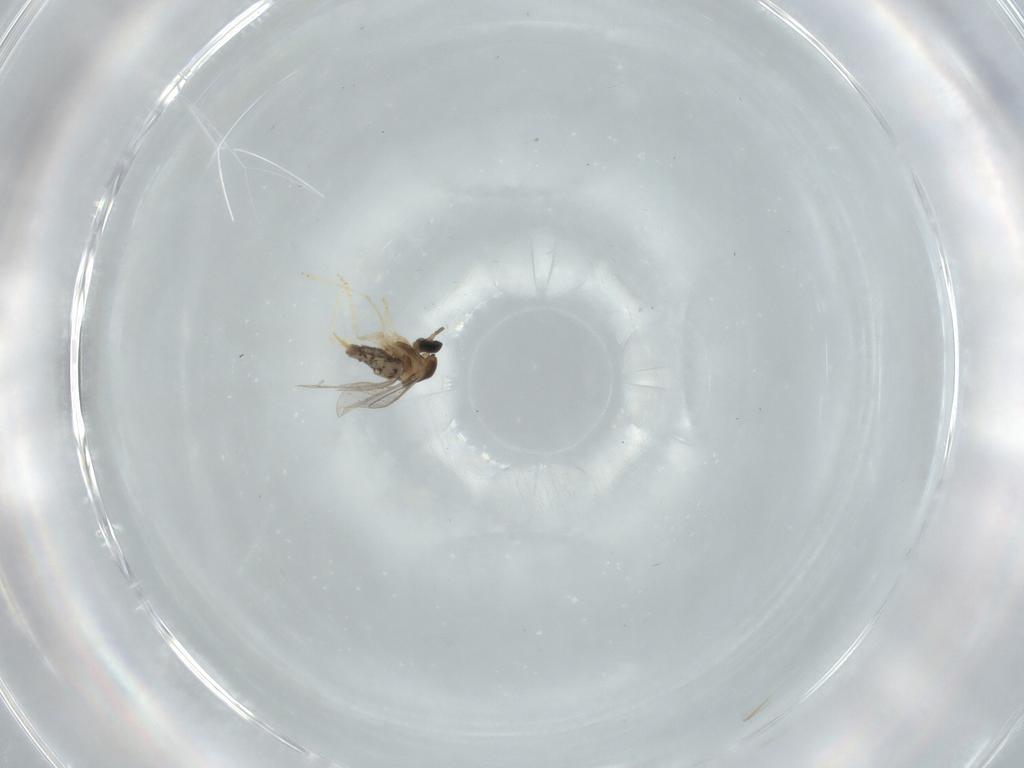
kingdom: Animalia
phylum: Arthropoda
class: Insecta
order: Diptera
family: Cecidomyiidae
